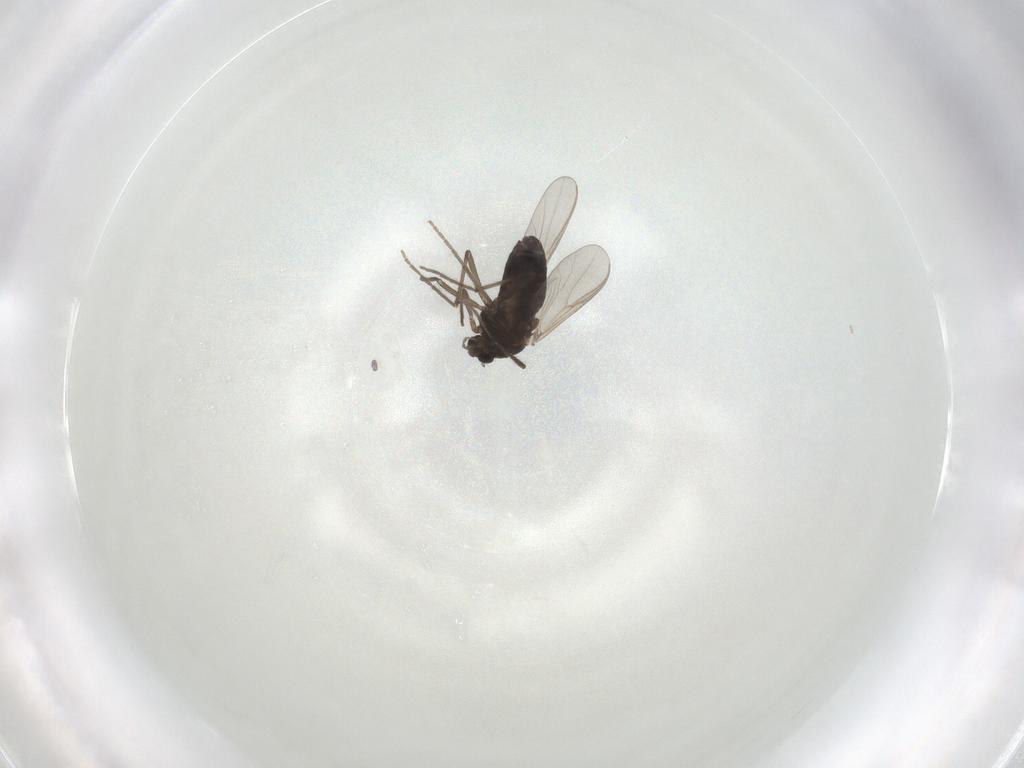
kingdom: Animalia
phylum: Arthropoda
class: Insecta
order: Diptera
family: Chironomidae
